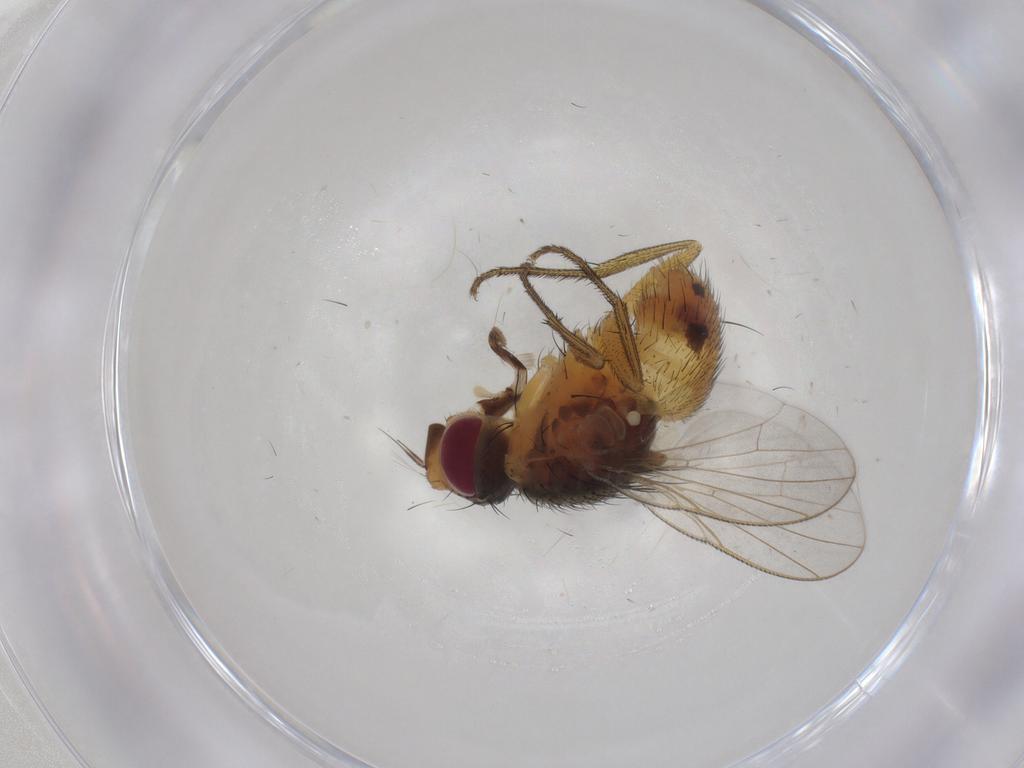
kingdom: Animalia
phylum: Arthropoda
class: Insecta
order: Diptera
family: Muscidae
